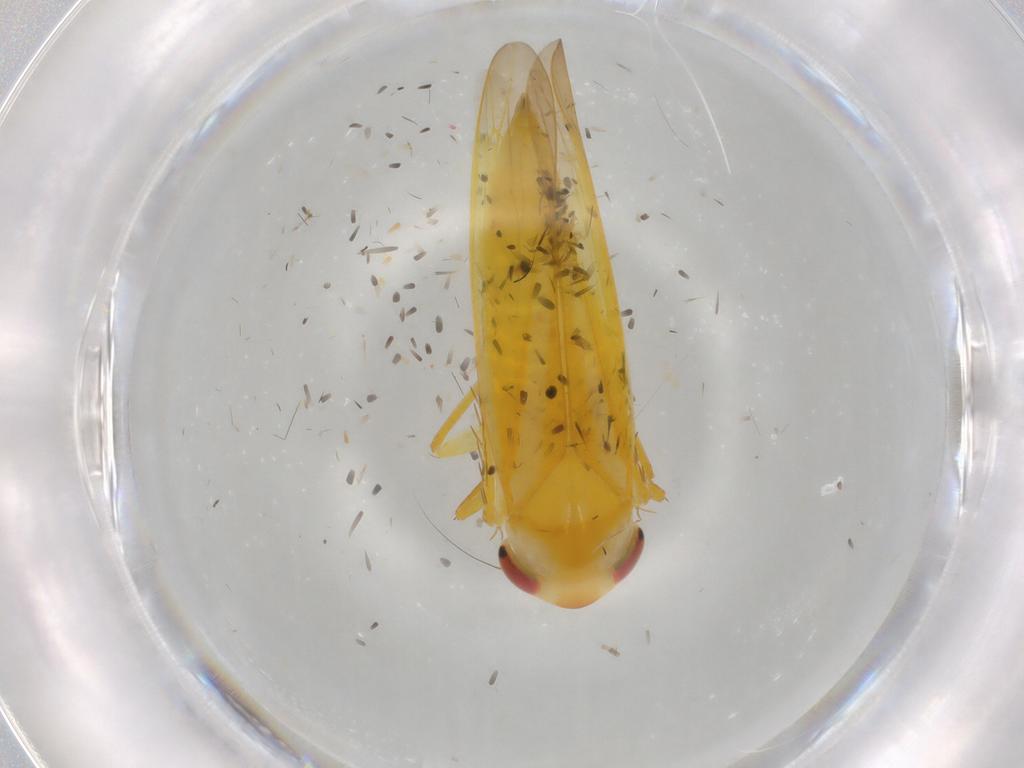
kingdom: Animalia
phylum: Arthropoda
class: Insecta
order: Hemiptera
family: Cicadellidae
